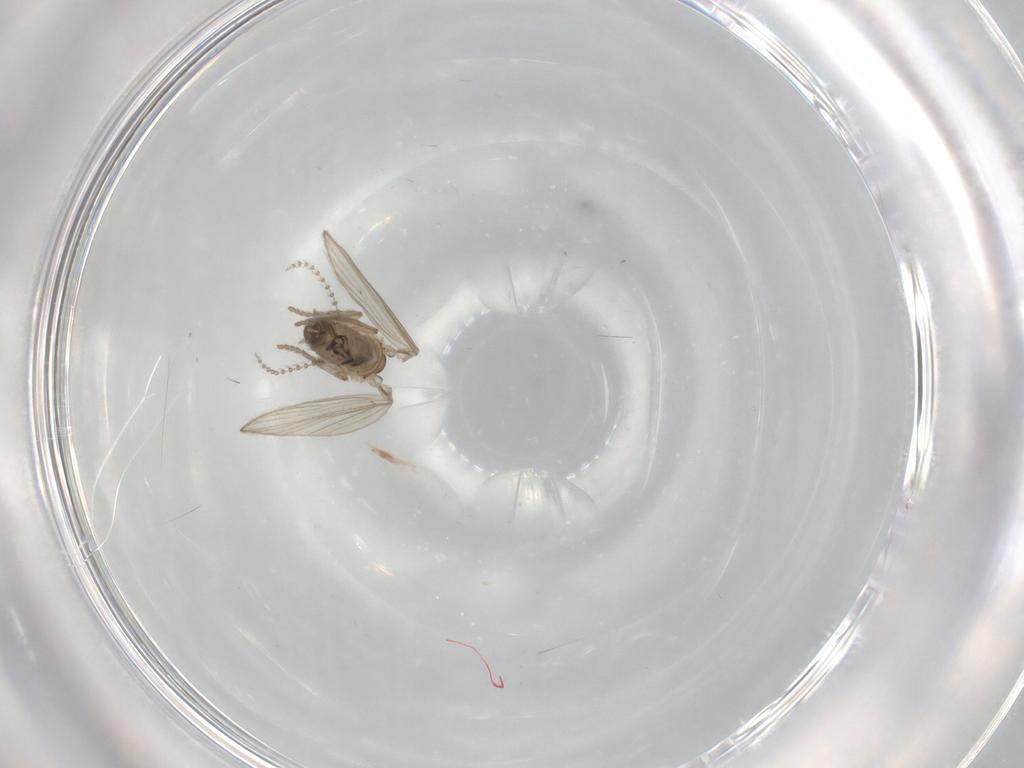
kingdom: Animalia
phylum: Arthropoda
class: Insecta
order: Diptera
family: Psychodidae
